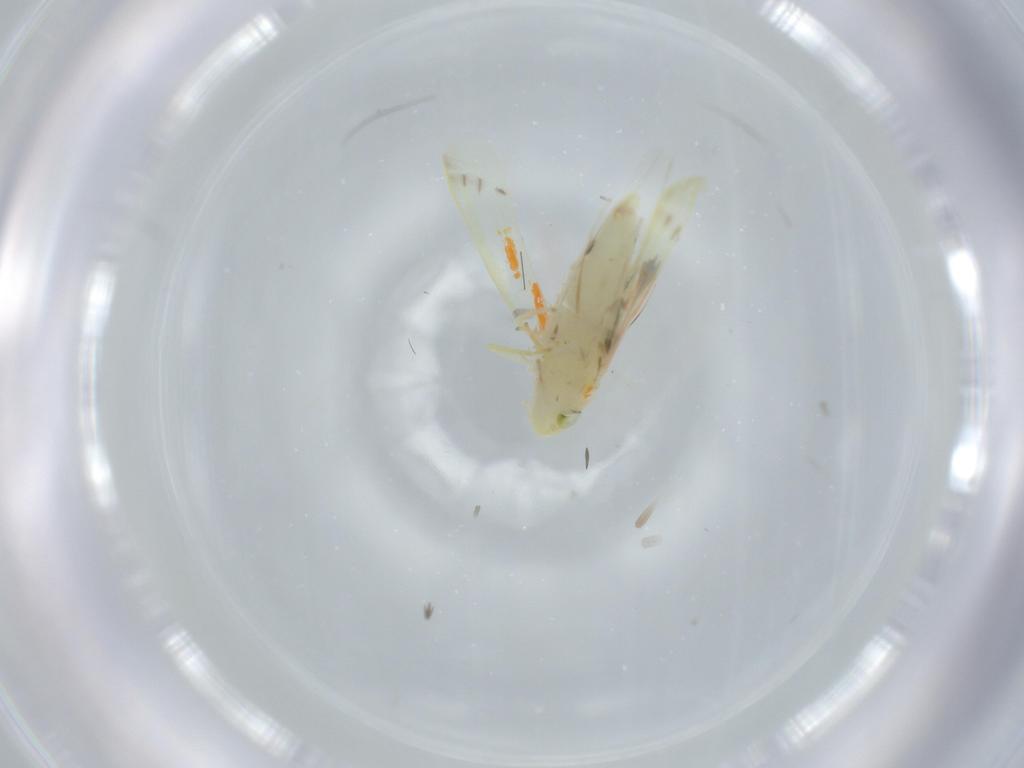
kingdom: Animalia
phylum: Arthropoda
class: Insecta
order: Hemiptera
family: Cicadellidae
